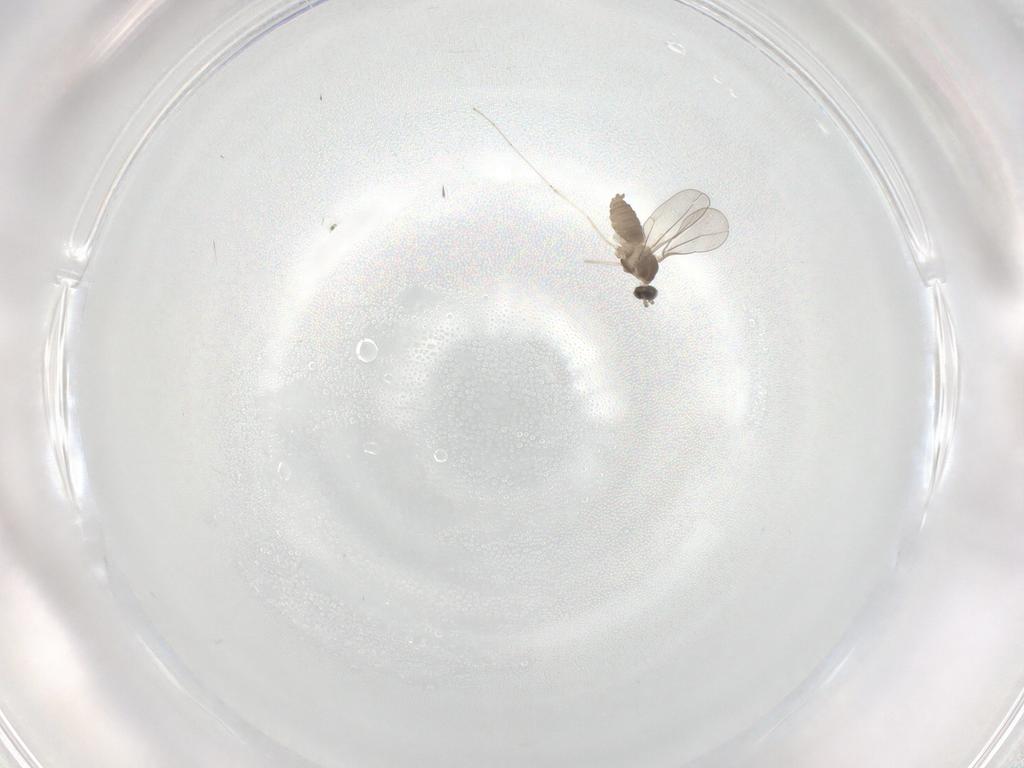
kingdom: Animalia
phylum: Arthropoda
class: Insecta
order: Diptera
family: Cecidomyiidae
